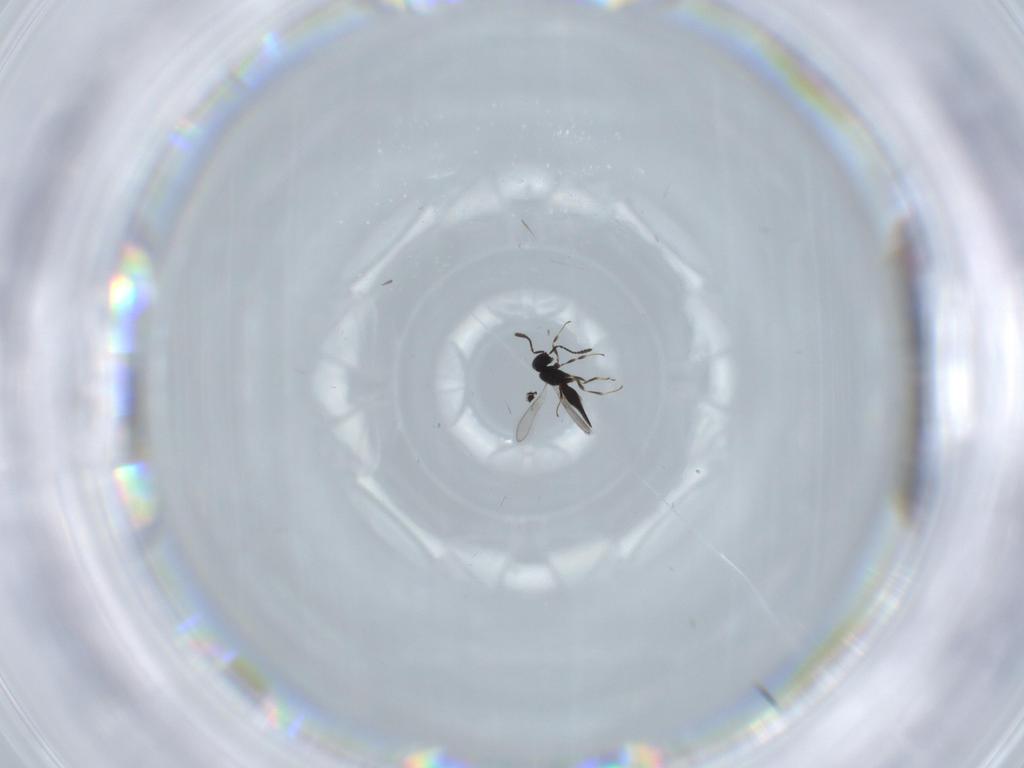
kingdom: Animalia
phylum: Arthropoda
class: Insecta
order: Hymenoptera
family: Scelionidae
